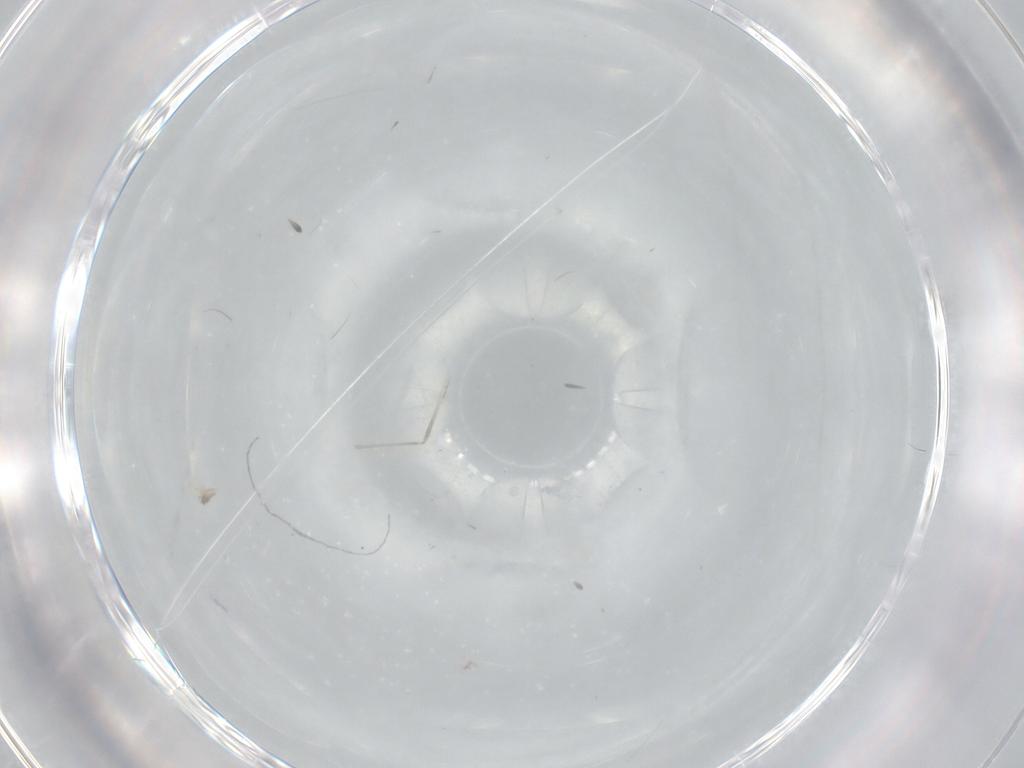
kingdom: Animalia
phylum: Arthropoda
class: Insecta
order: Diptera
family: Cecidomyiidae
